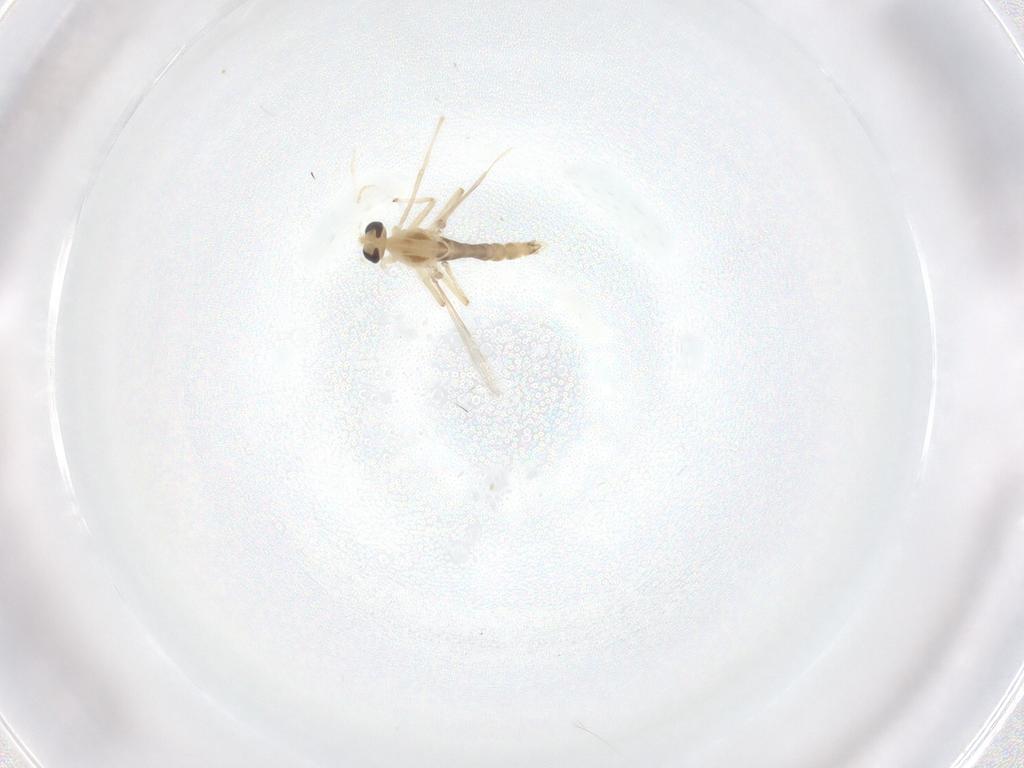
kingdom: Animalia
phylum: Arthropoda
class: Insecta
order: Diptera
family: Chironomidae
